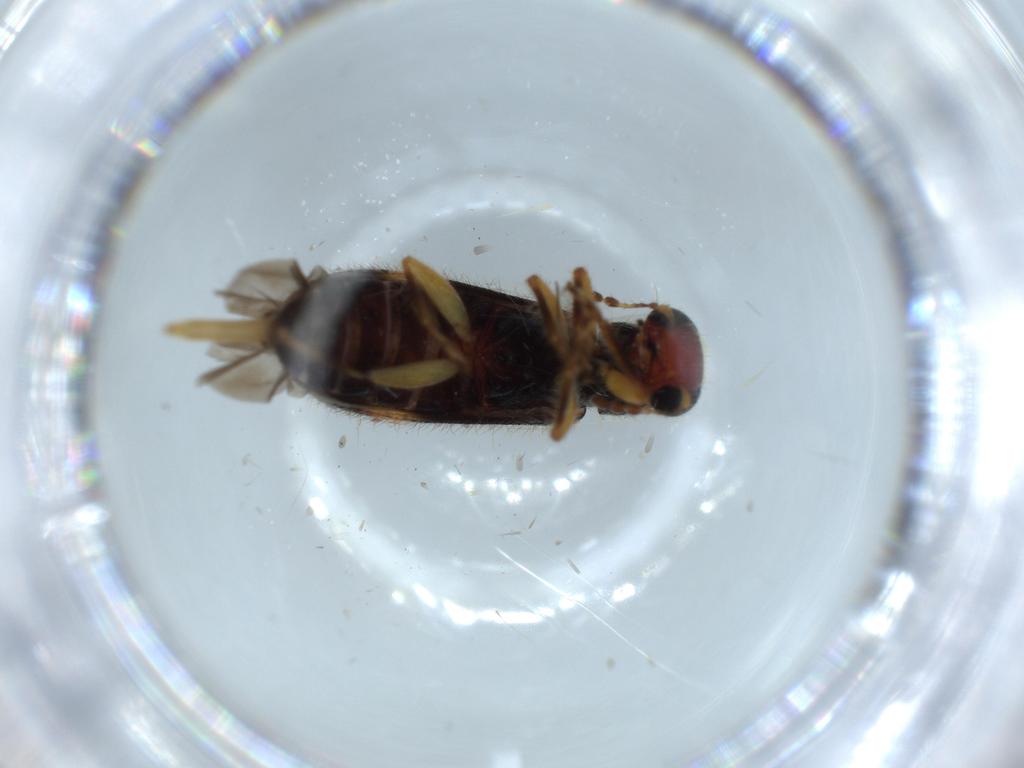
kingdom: Animalia
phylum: Arthropoda
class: Insecta
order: Coleoptera
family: Cleridae
